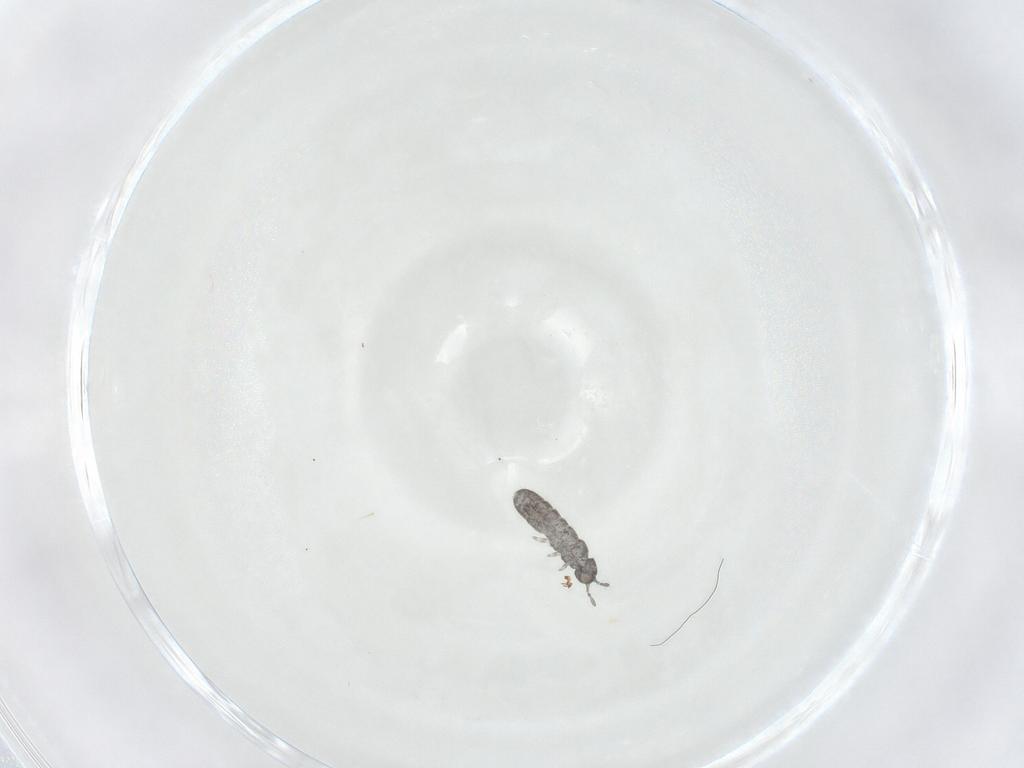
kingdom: Animalia
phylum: Arthropoda
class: Collembola
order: Entomobryomorpha
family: Isotomidae
